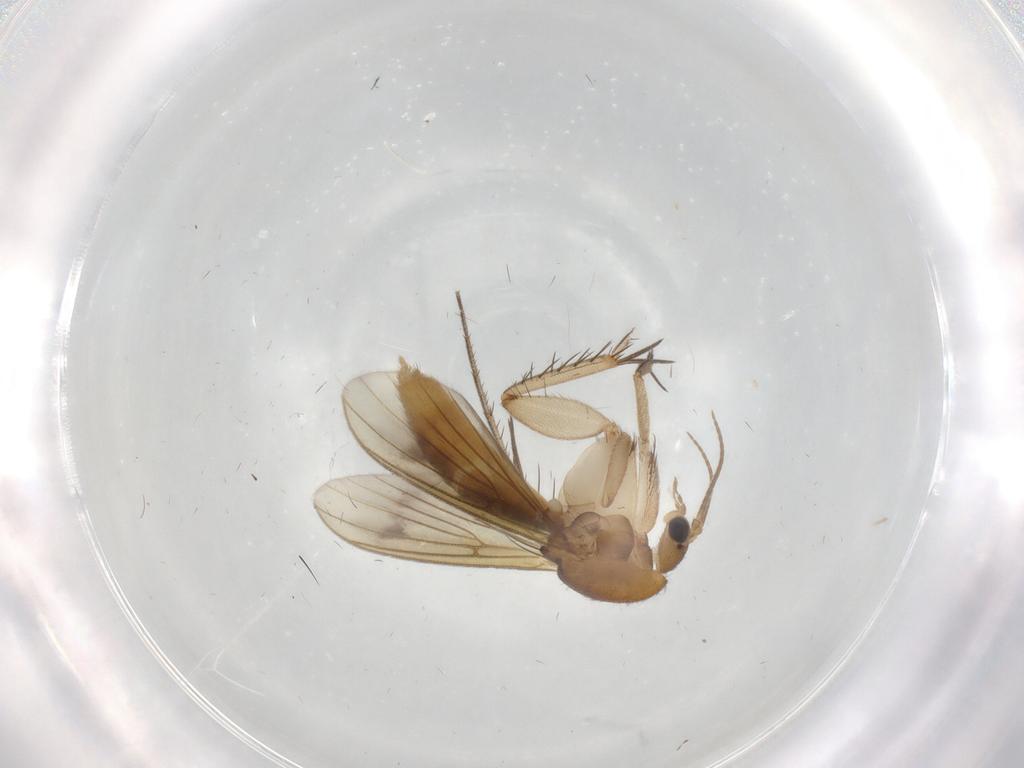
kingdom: Animalia
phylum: Arthropoda
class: Insecta
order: Diptera
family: Mycetophilidae
